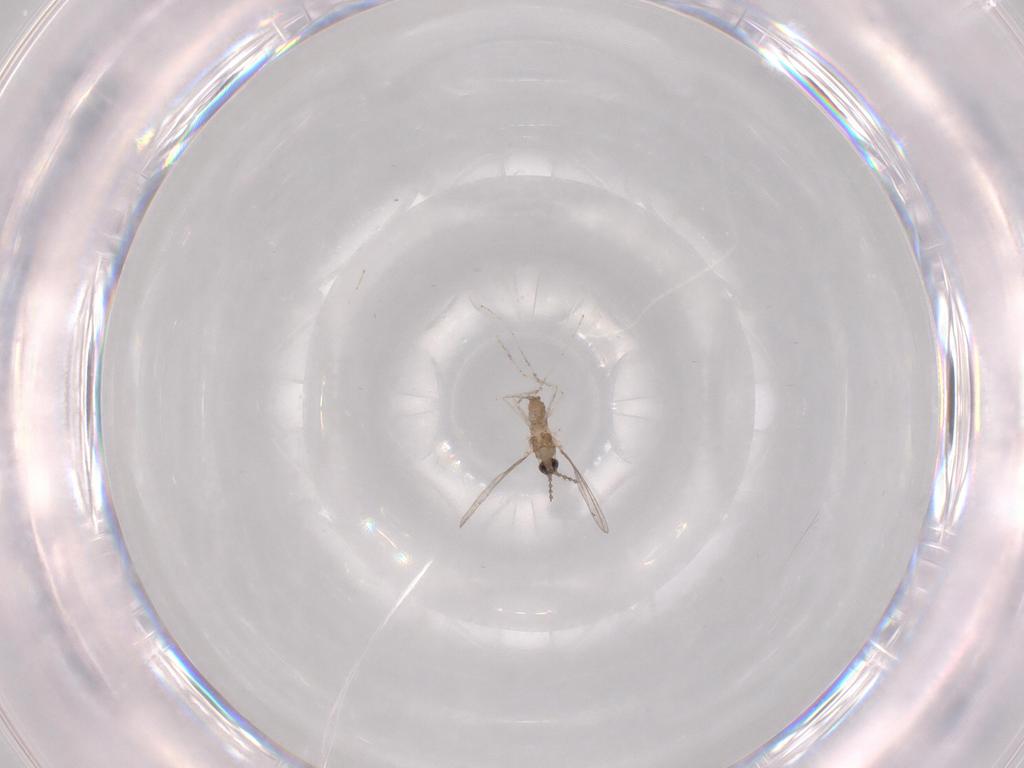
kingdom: Animalia
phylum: Arthropoda
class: Insecta
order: Diptera
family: Cecidomyiidae
